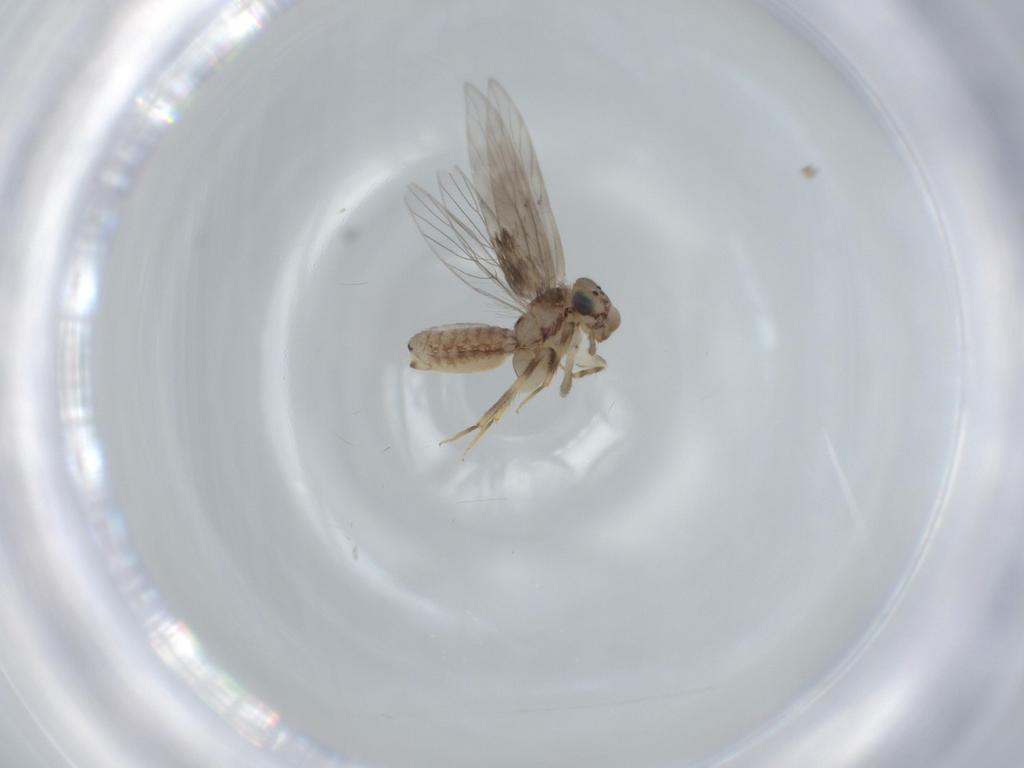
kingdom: Animalia
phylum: Arthropoda
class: Insecta
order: Psocodea
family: Lepidopsocidae
